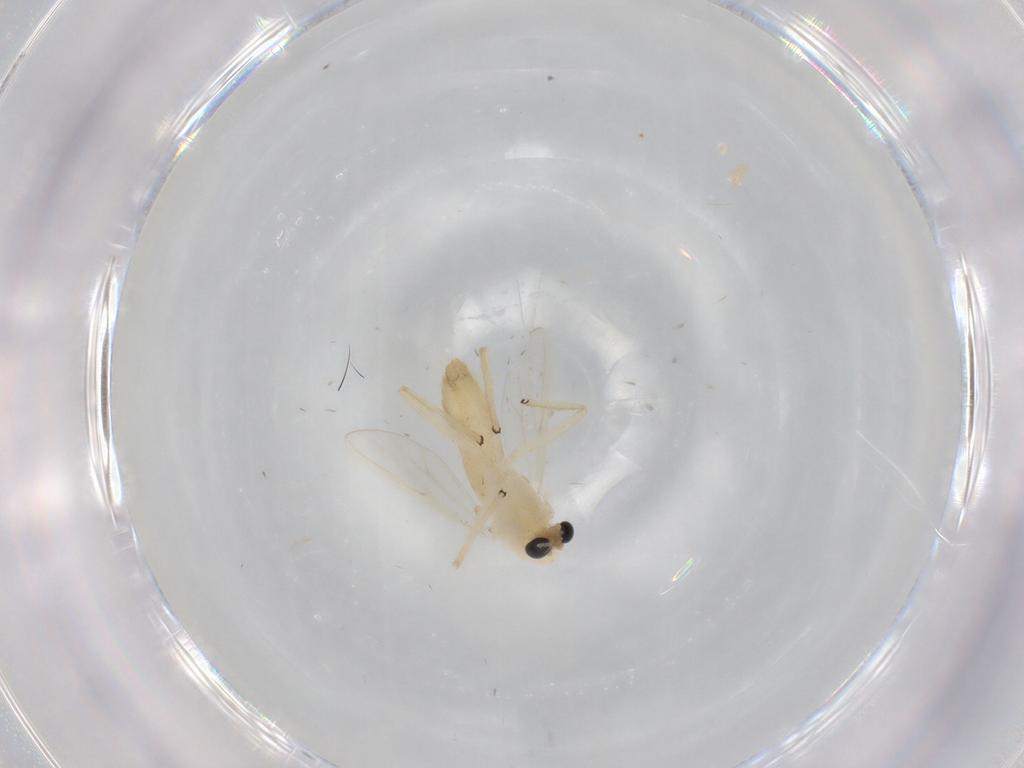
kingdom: Animalia
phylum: Arthropoda
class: Insecta
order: Diptera
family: Chironomidae
